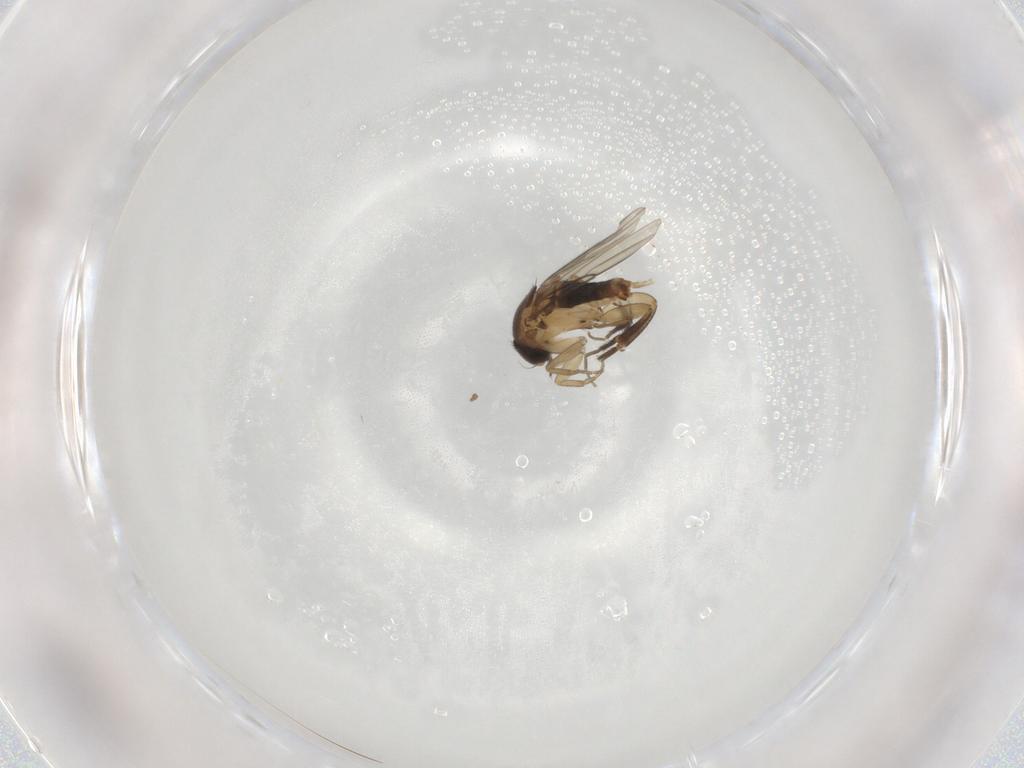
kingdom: Animalia
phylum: Arthropoda
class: Insecta
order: Diptera
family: Phoridae
